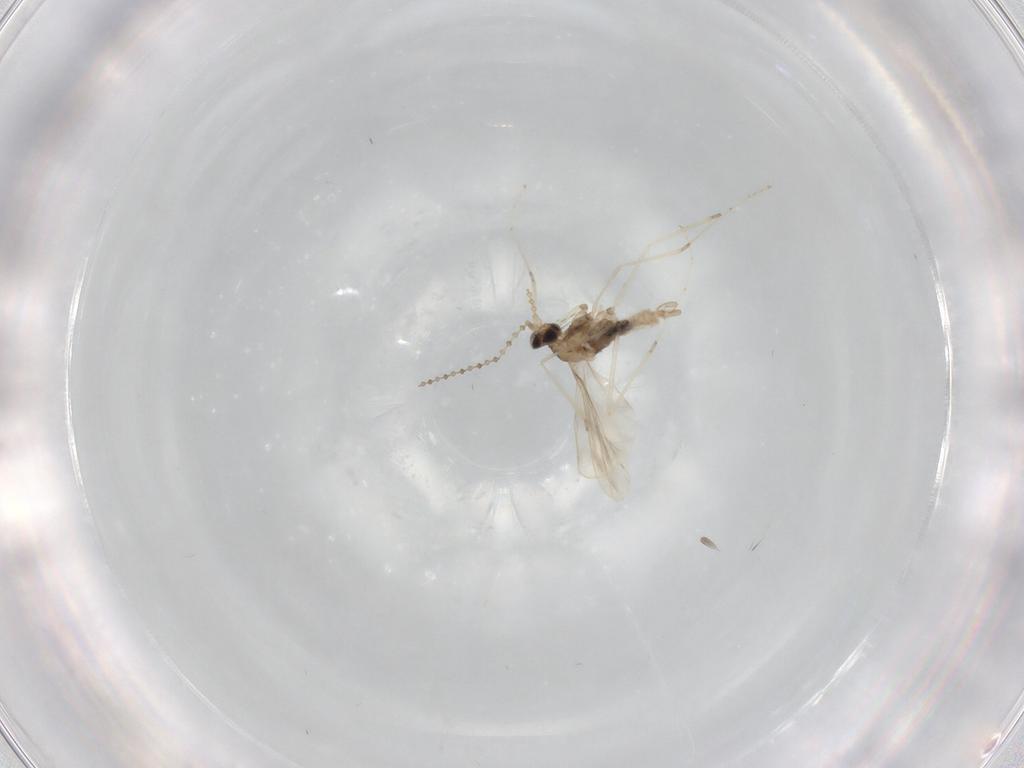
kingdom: Animalia
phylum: Arthropoda
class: Insecta
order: Diptera
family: Cecidomyiidae
